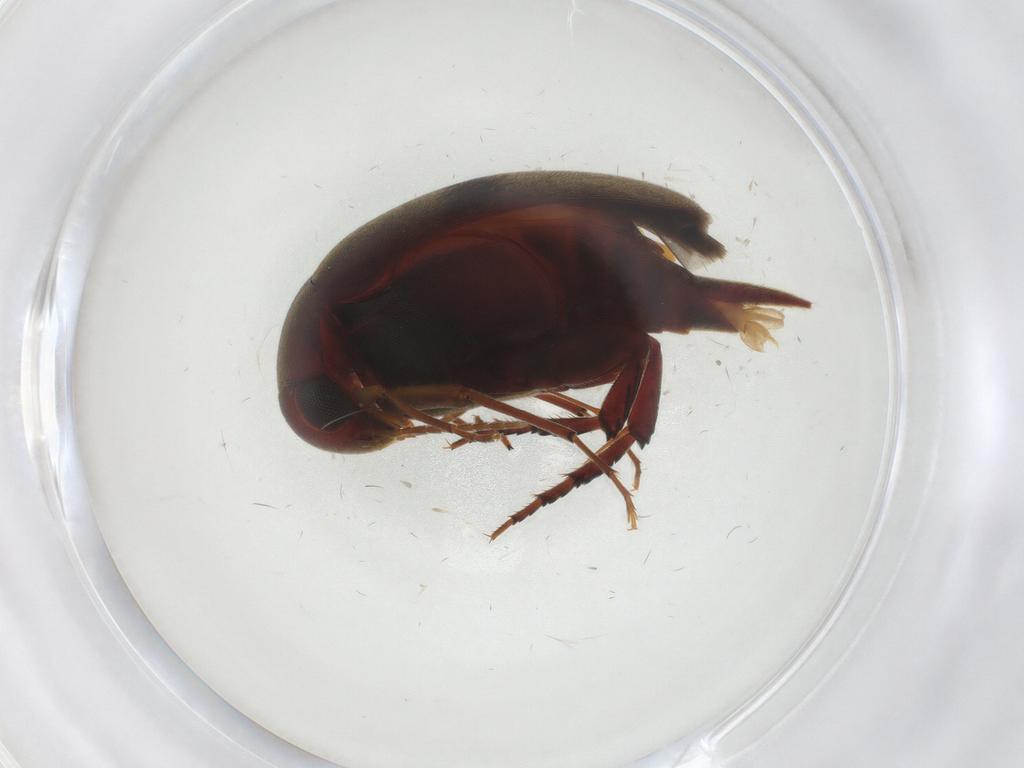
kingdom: Animalia
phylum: Arthropoda
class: Insecta
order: Coleoptera
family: Mordellidae
